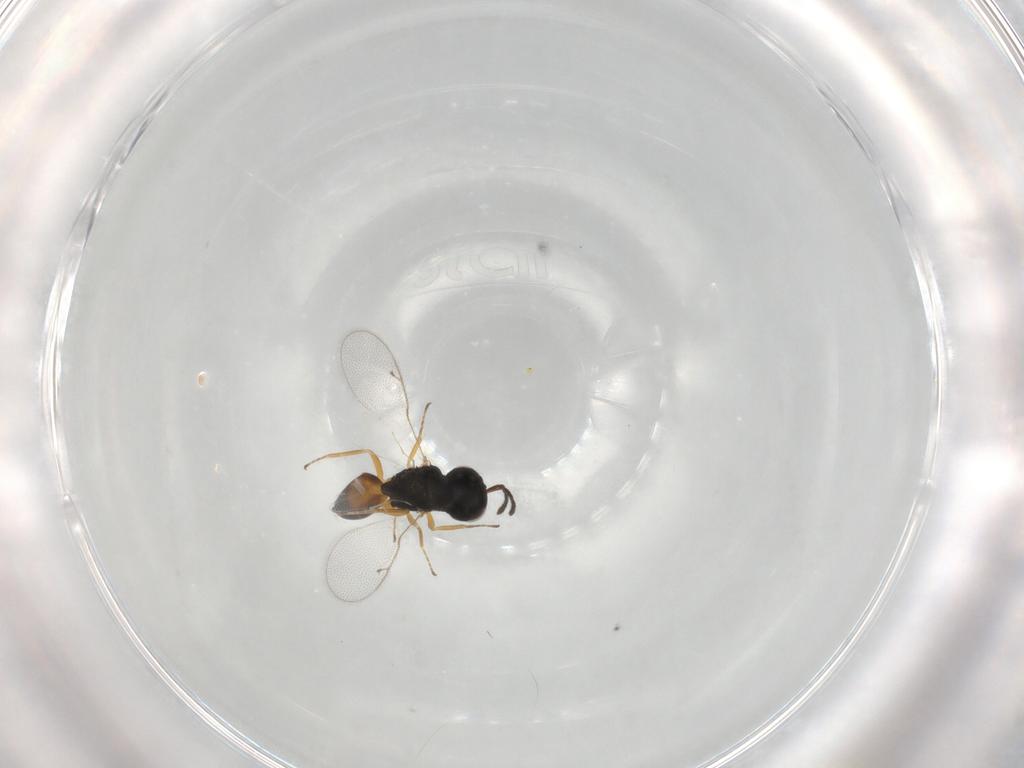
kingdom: Animalia
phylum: Arthropoda
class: Insecta
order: Hymenoptera
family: Pteromalidae
